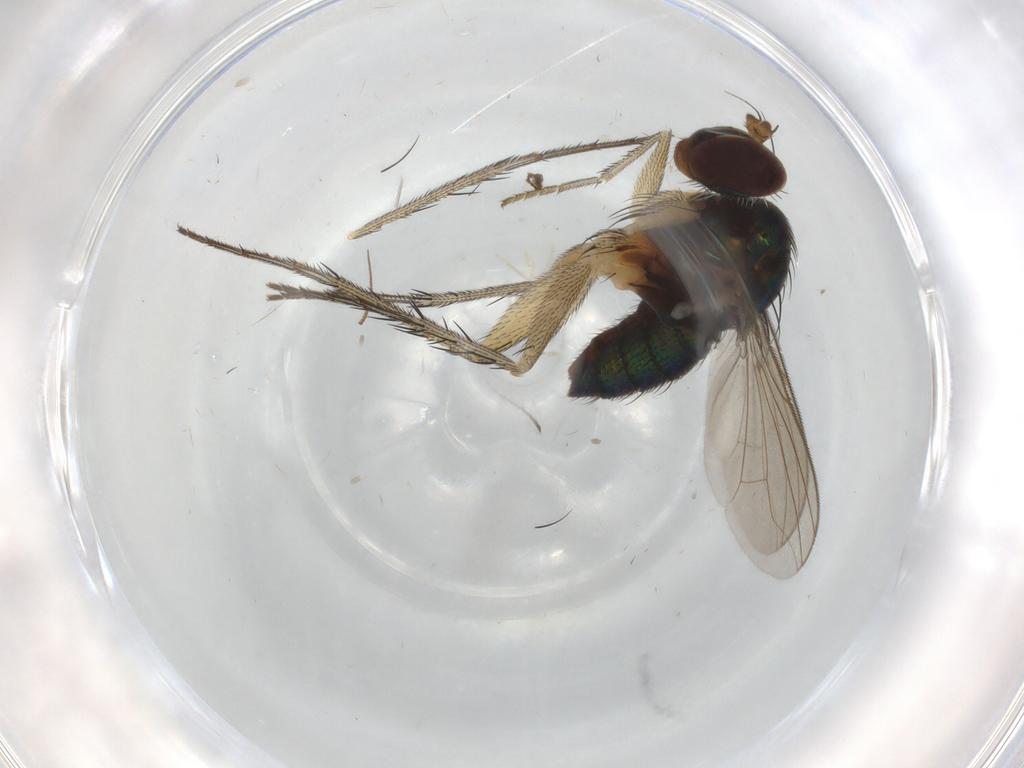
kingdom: Animalia
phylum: Arthropoda
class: Insecta
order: Diptera
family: Dolichopodidae
